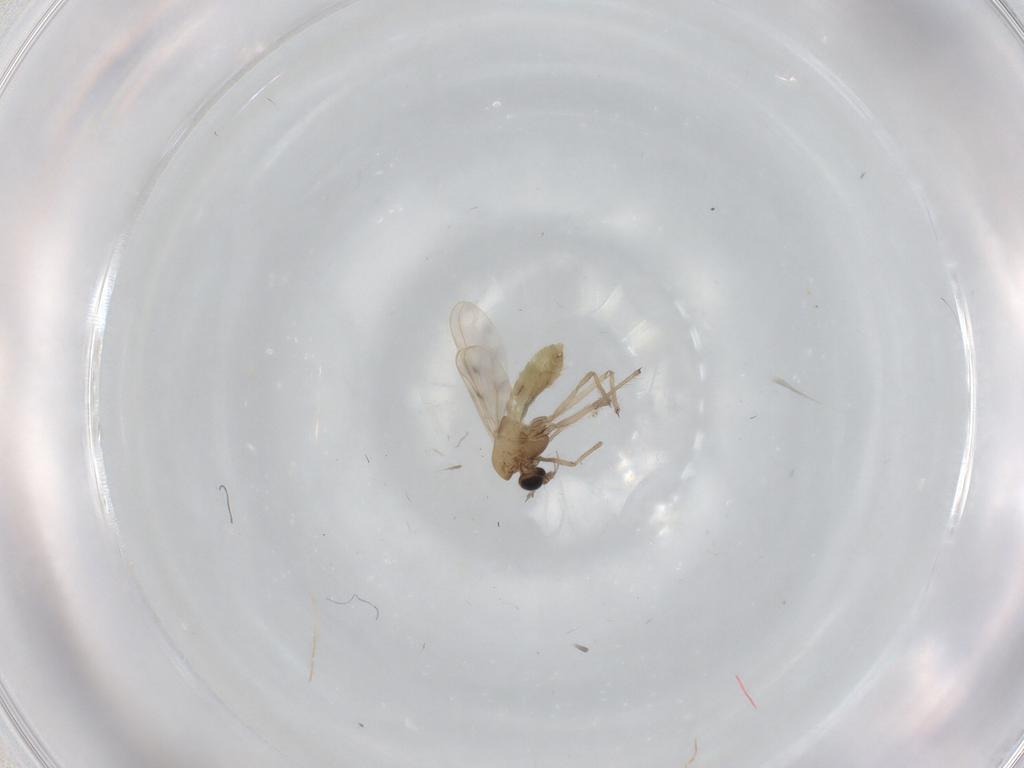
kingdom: Animalia
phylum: Arthropoda
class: Insecta
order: Diptera
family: Chironomidae
